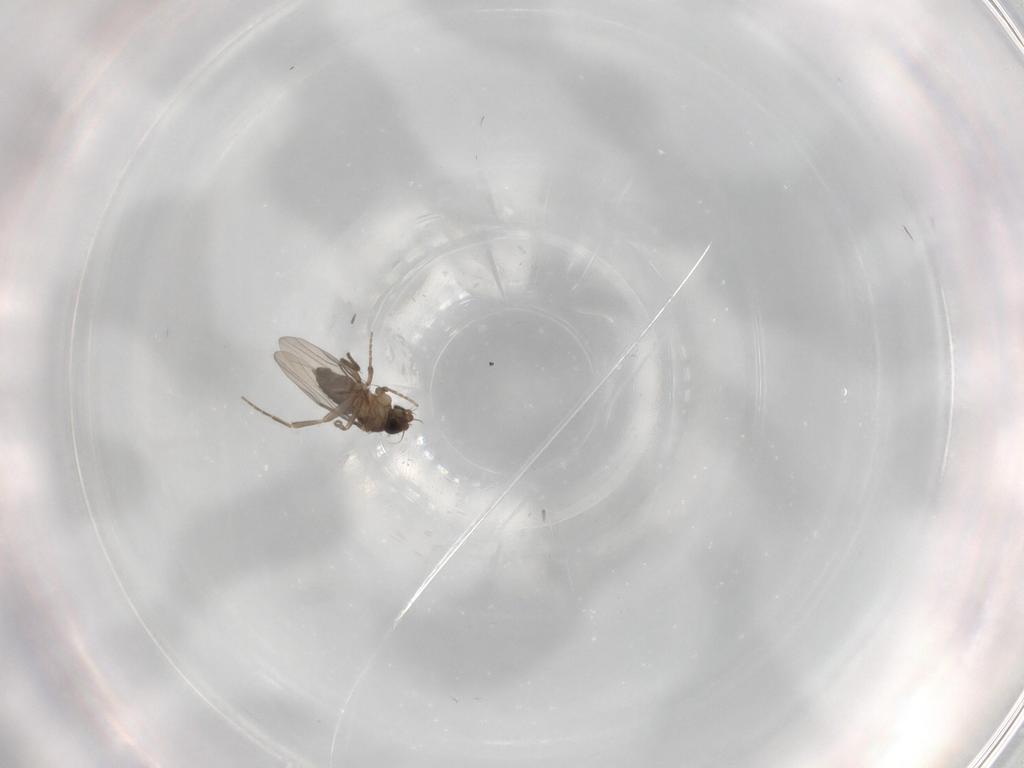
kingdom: Animalia
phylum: Arthropoda
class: Insecta
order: Diptera
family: Phoridae
